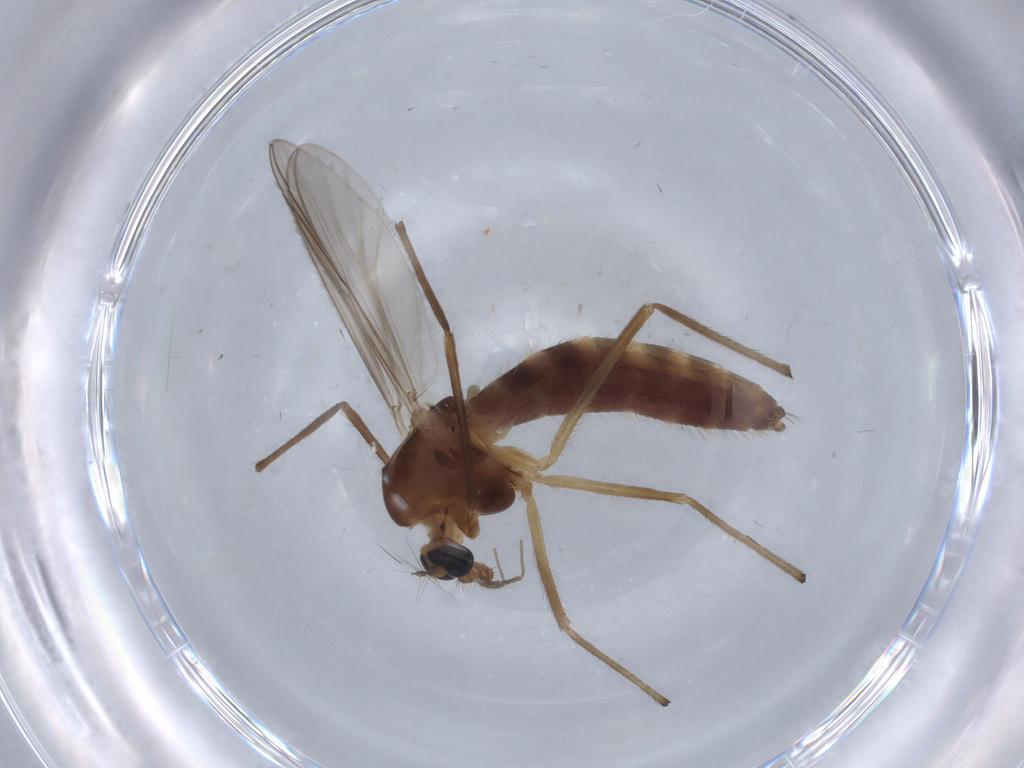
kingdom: Animalia
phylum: Arthropoda
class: Insecta
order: Diptera
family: Chironomidae
